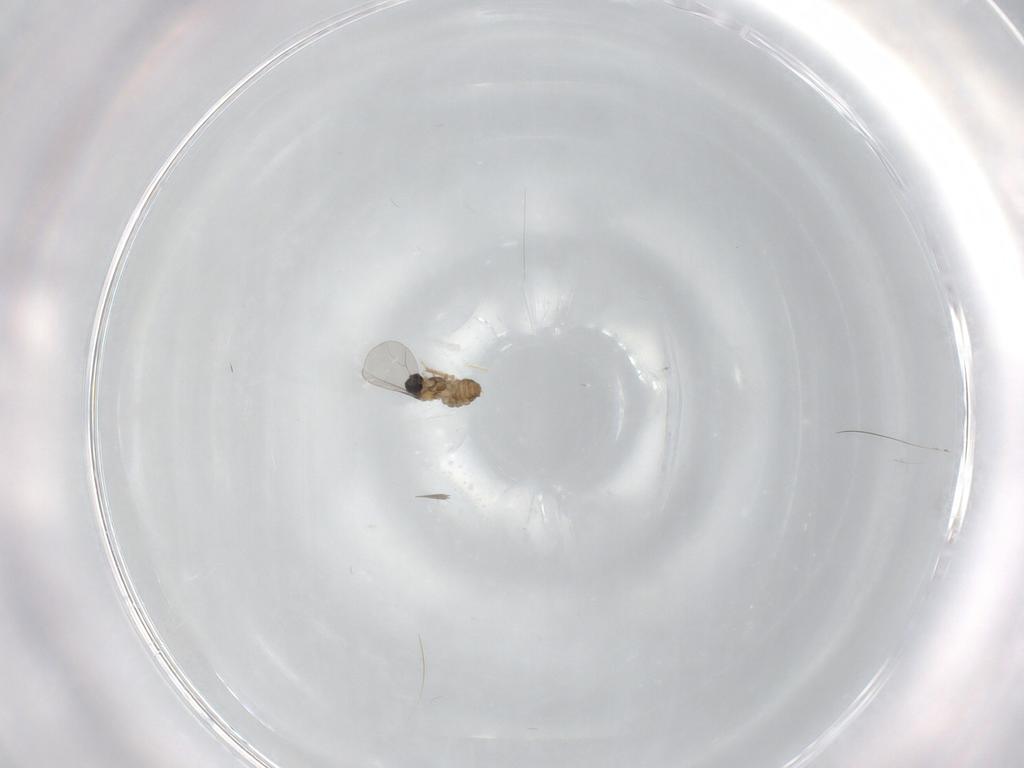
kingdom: Animalia
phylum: Arthropoda
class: Insecta
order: Diptera
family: Cecidomyiidae
